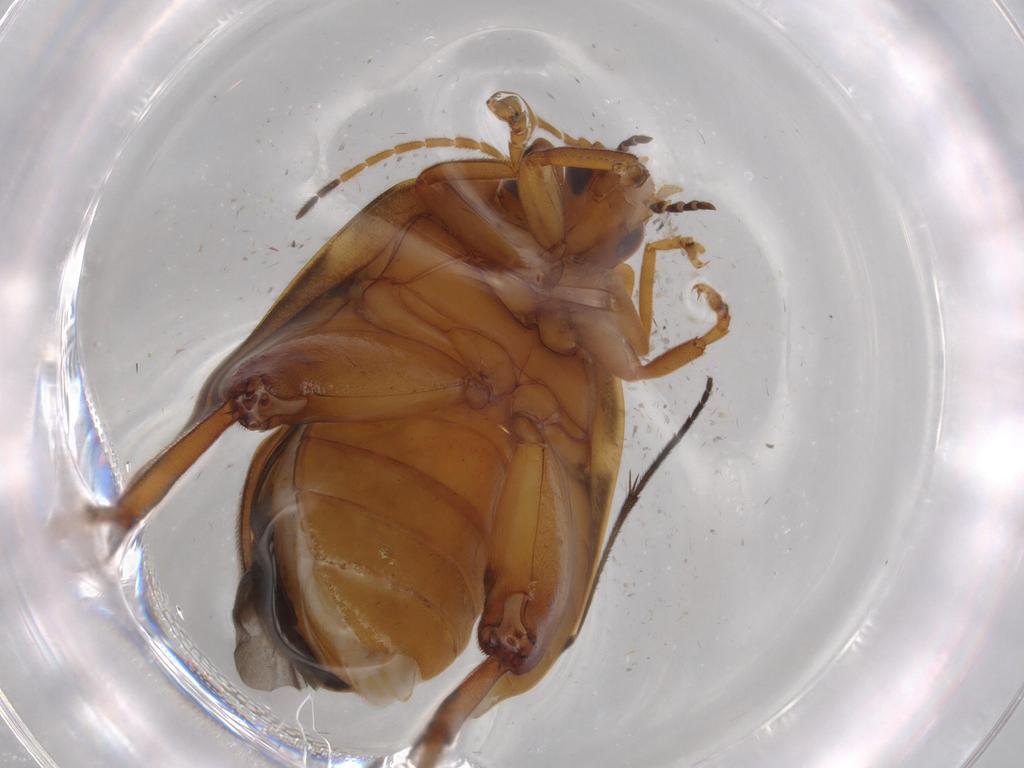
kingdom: Animalia
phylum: Arthropoda
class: Insecta
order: Coleoptera
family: Scirtidae
